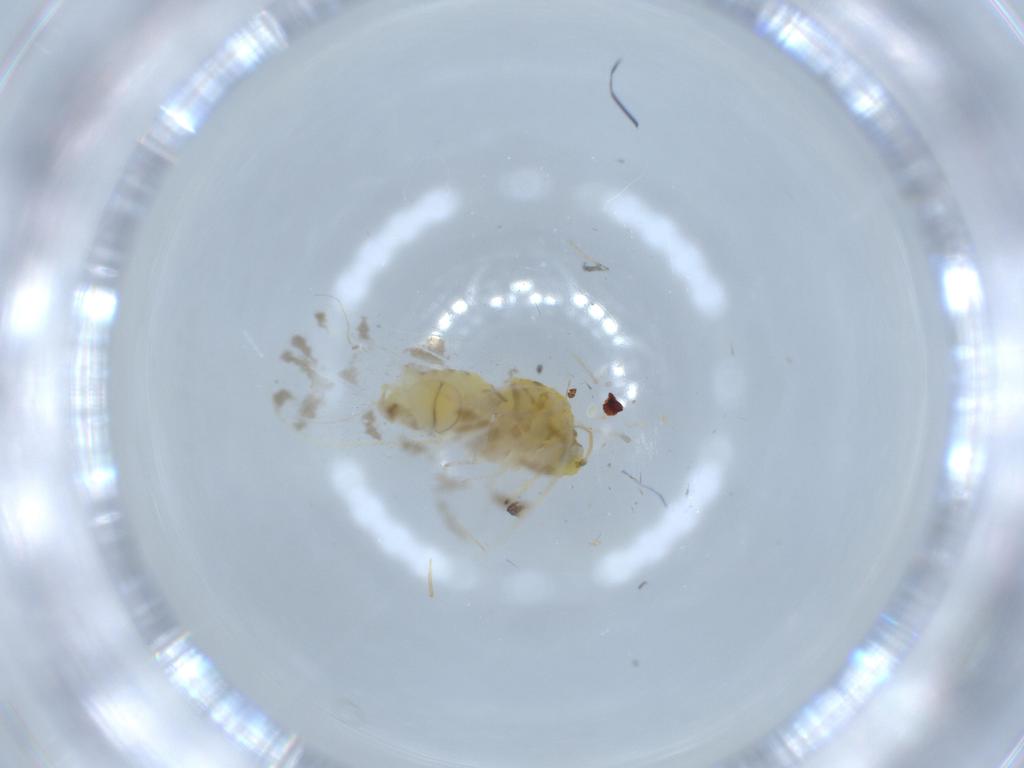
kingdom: Animalia
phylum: Arthropoda
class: Insecta
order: Hemiptera
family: Aleyrodidae
